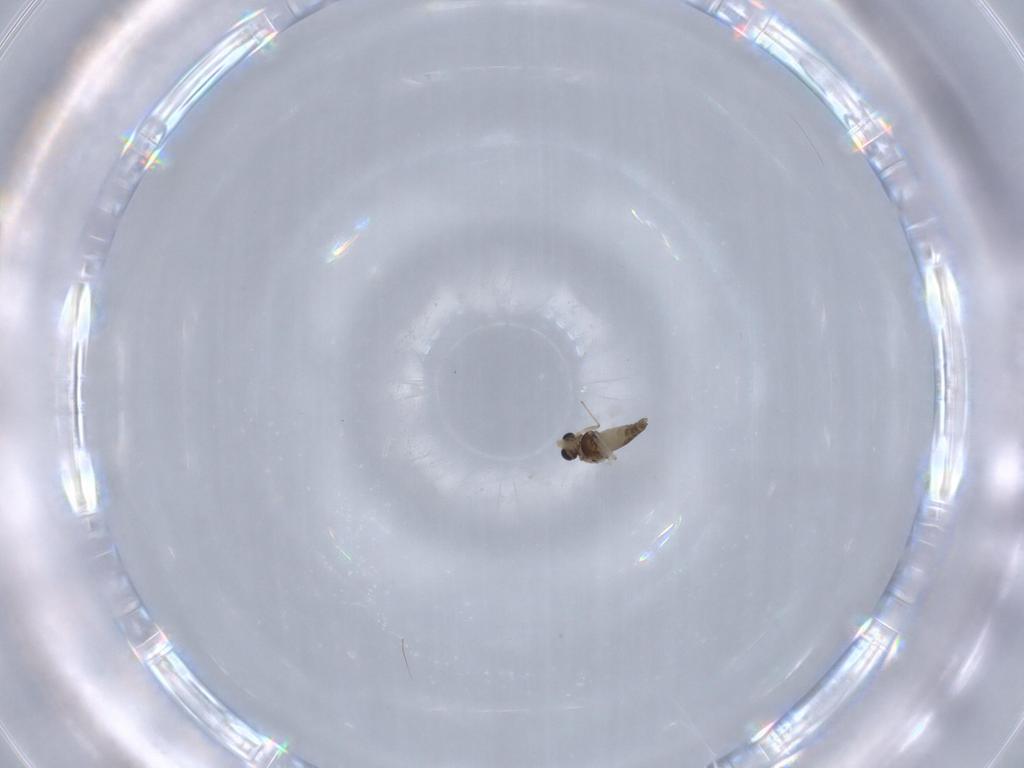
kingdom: Animalia
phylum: Arthropoda
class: Insecta
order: Diptera
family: Chironomidae
